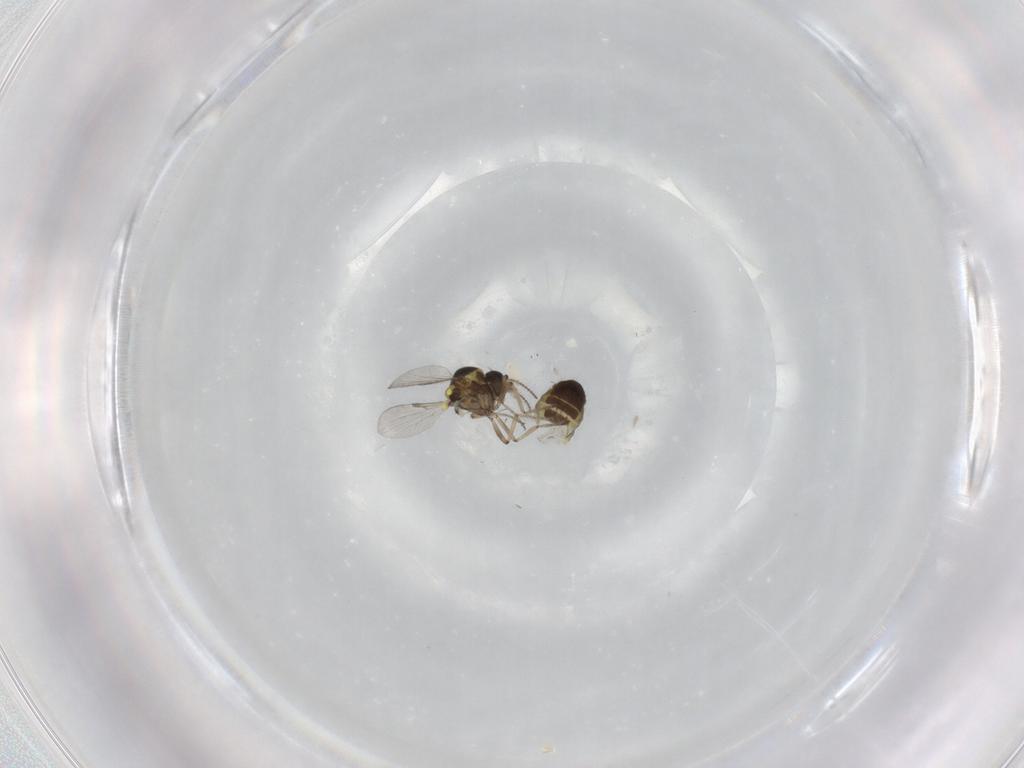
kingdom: Animalia
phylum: Arthropoda
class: Insecta
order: Diptera
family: Ceratopogonidae
